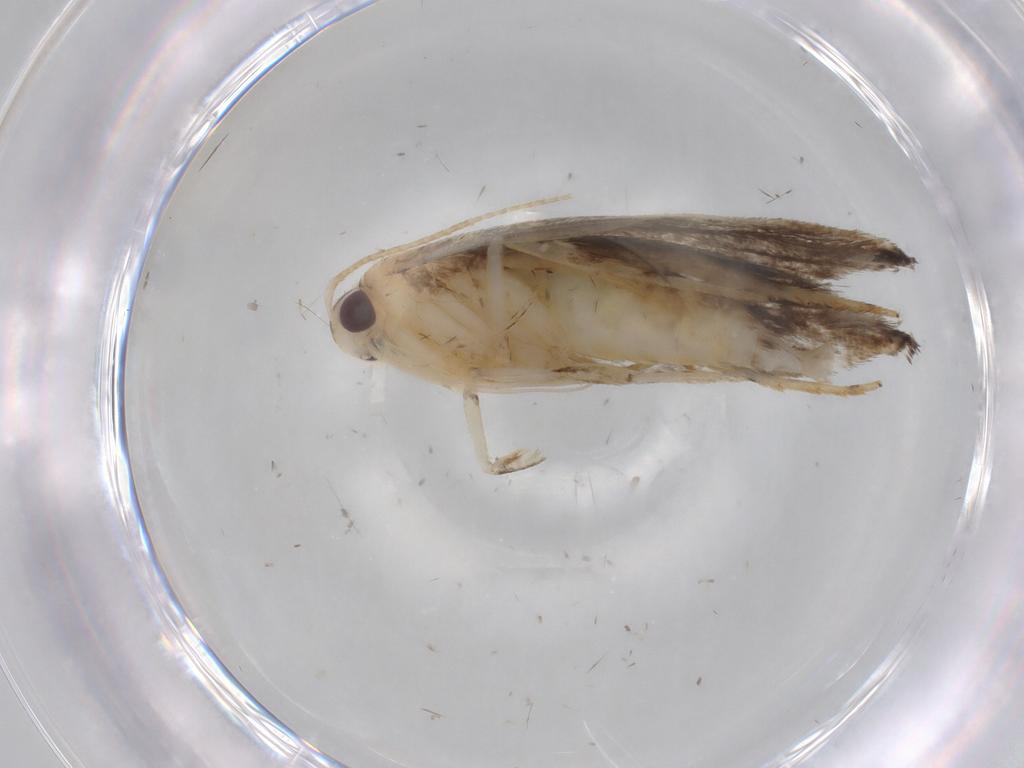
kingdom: Animalia
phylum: Arthropoda
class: Insecta
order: Lepidoptera
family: Gelechiidae
